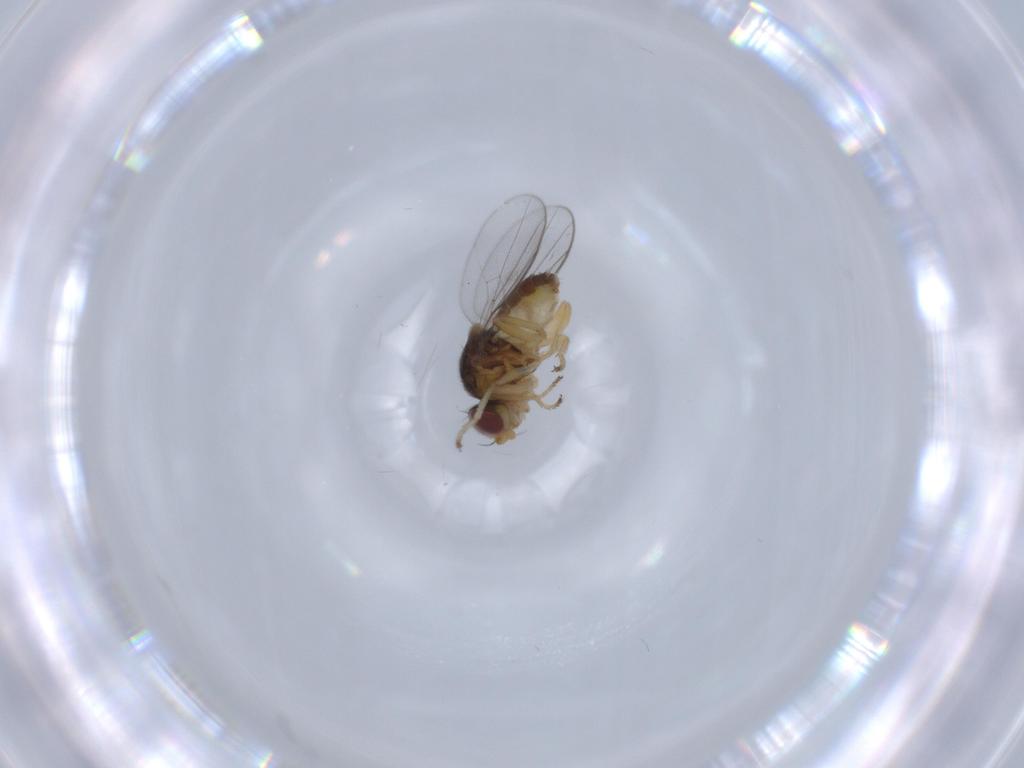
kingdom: Animalia
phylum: Arthropoda
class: Insecta
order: Diptera
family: Chloropidae
